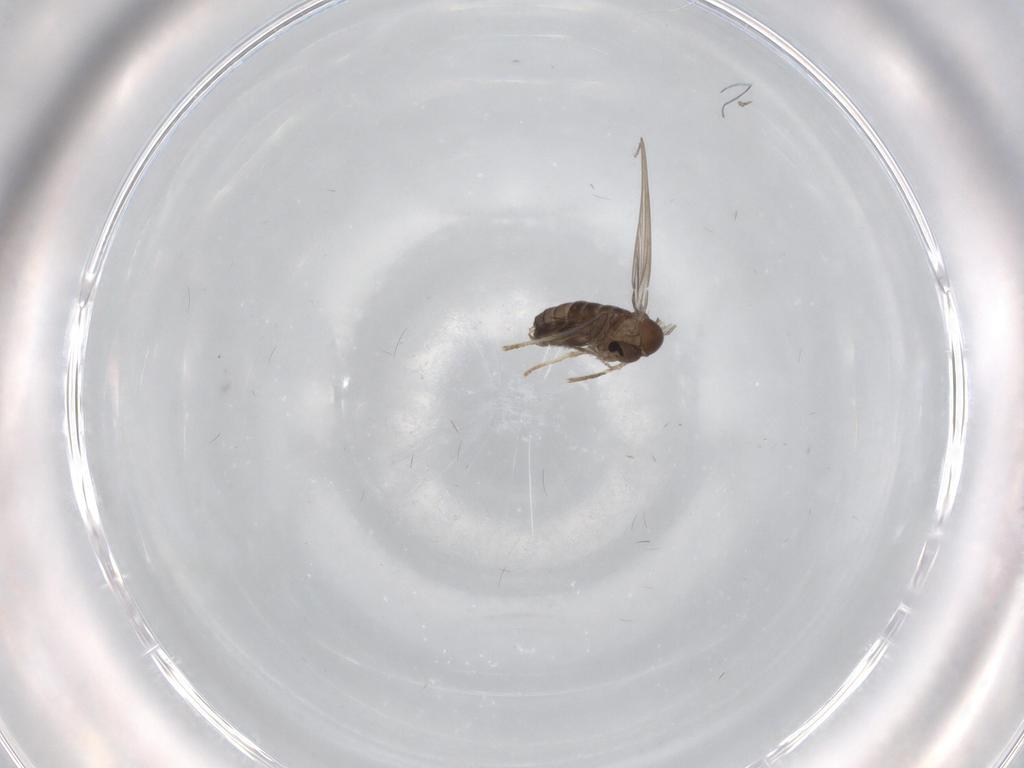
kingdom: Animalia
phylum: Arthropoda
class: Insecta
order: Diptera
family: Psychodidae
